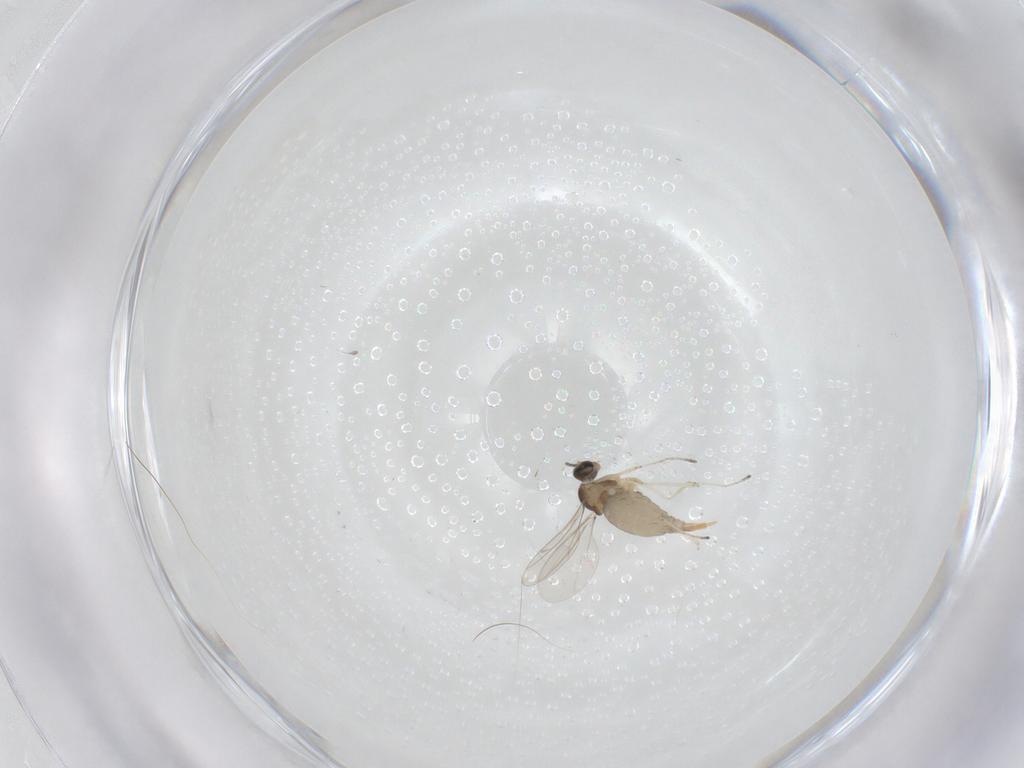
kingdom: Animalia
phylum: Arthropoda
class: Insecta
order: Diptera
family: Cecidomyiidae
